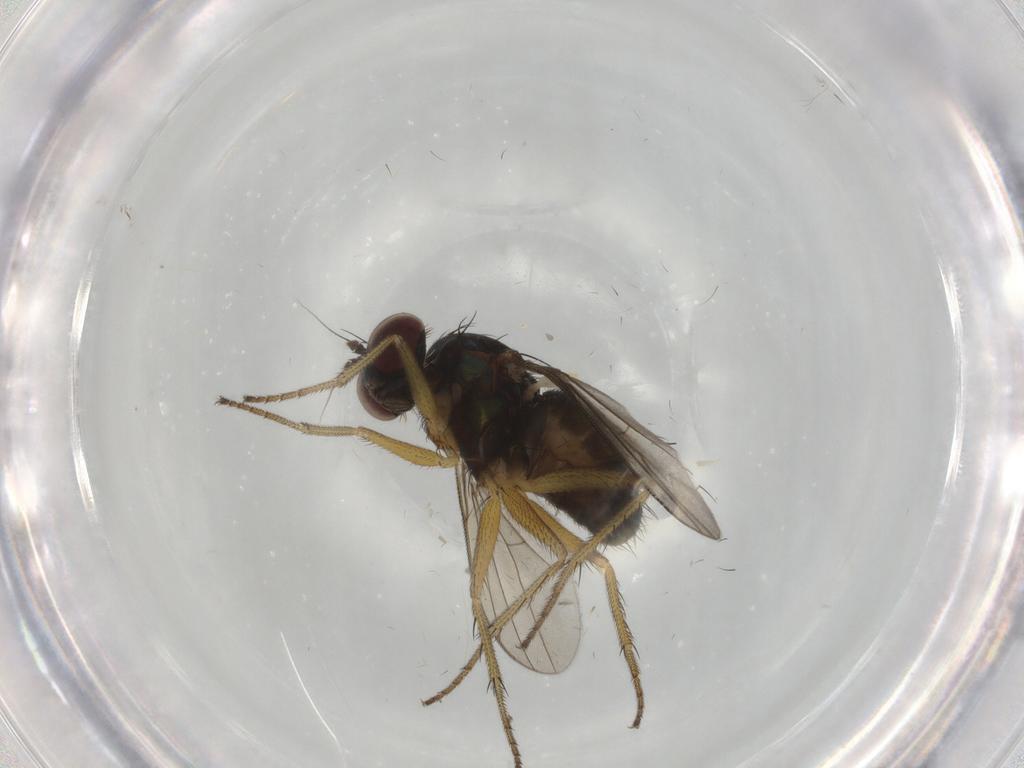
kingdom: Animalia
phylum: Arthropoda
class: Insecta
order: Diptera
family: Dolichopodidae
